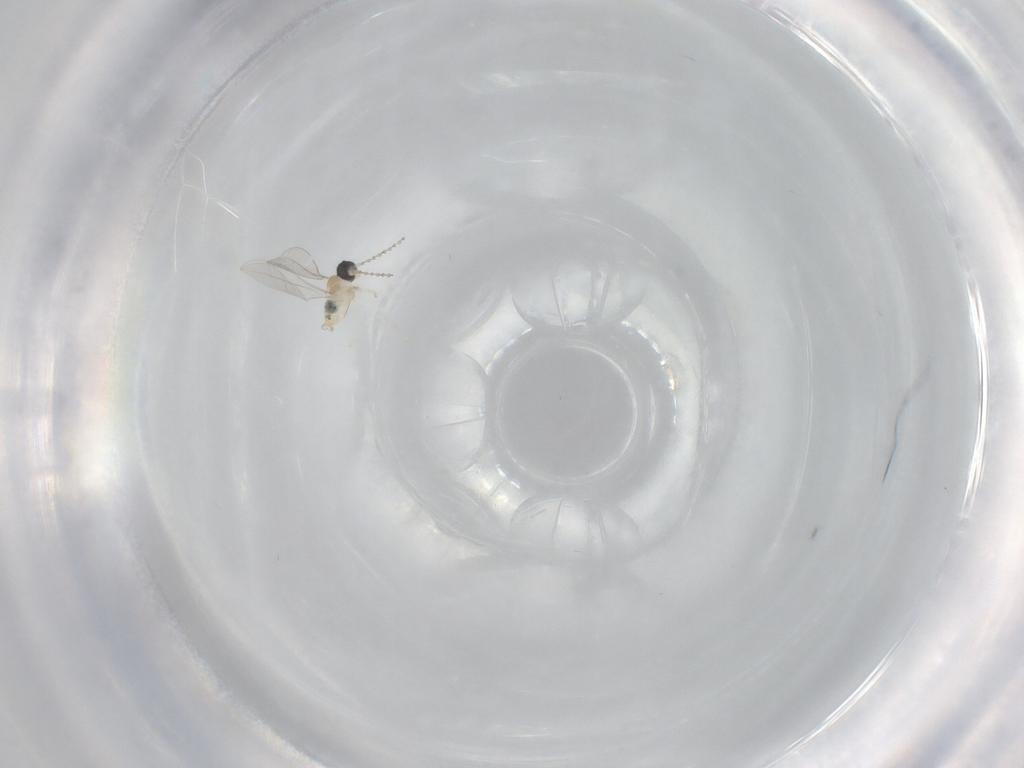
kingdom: Animalia
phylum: Arthropoda
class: Insecta
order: Diptera
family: Cecidomyiidae
